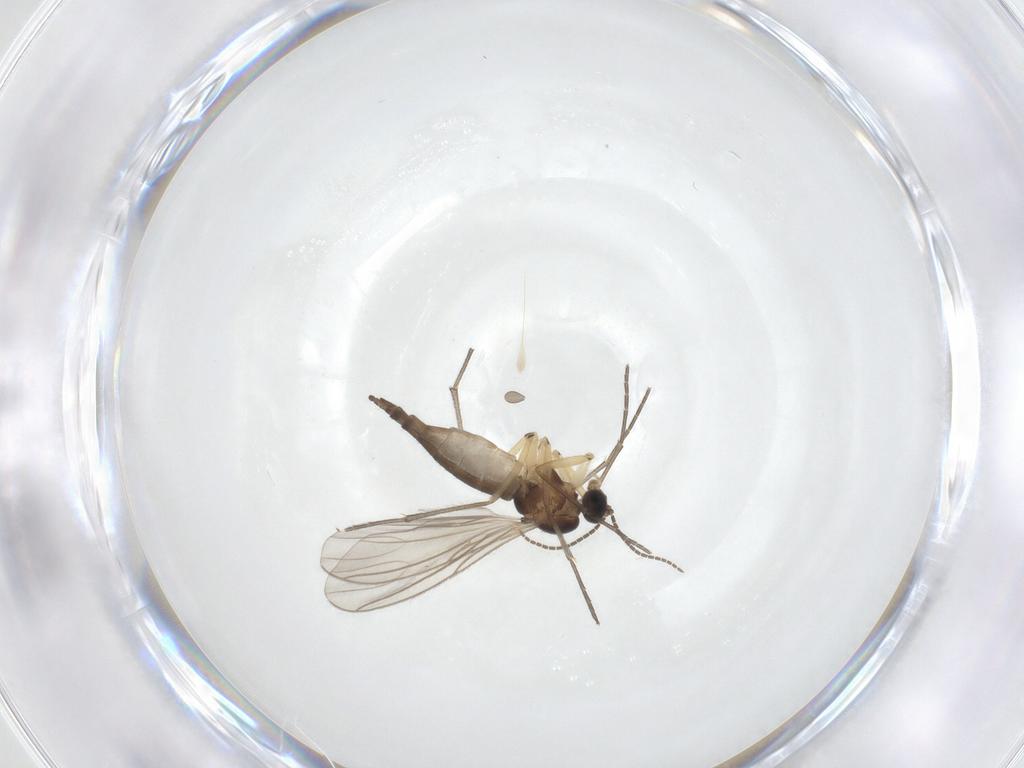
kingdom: Animalia
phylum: Arthropoda
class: Insecta
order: Diptera
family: Sciaridae
